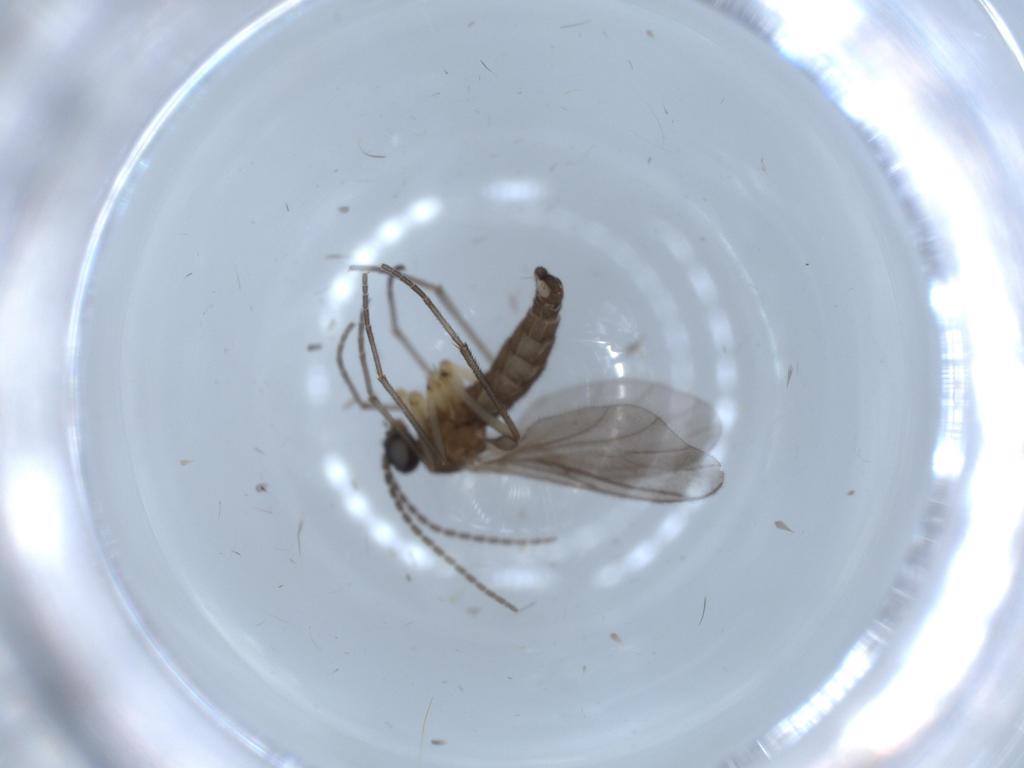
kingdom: Animalia
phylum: Arthropoda
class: Insecta
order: Diptera
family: Sciaridae
